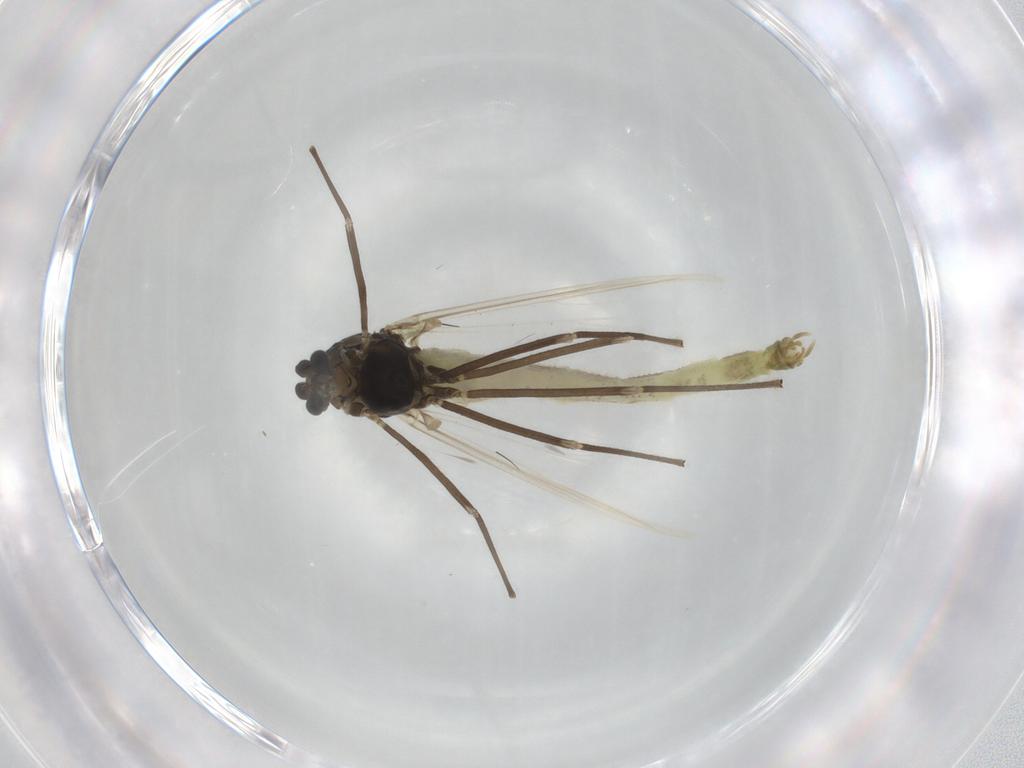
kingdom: Animalia
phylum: Arthropoda
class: Insecta
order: Diptera
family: Chironomidae
